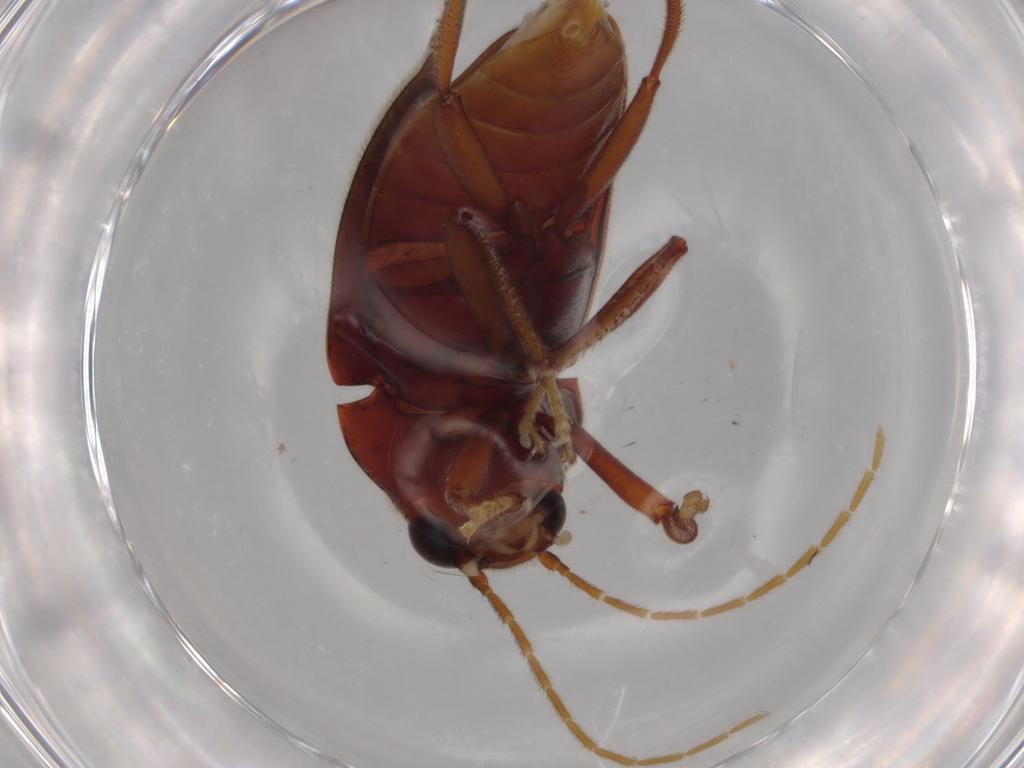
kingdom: Animalia
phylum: Arthropoda
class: Insecta
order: Coleoptera
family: Ptilodactylidae
